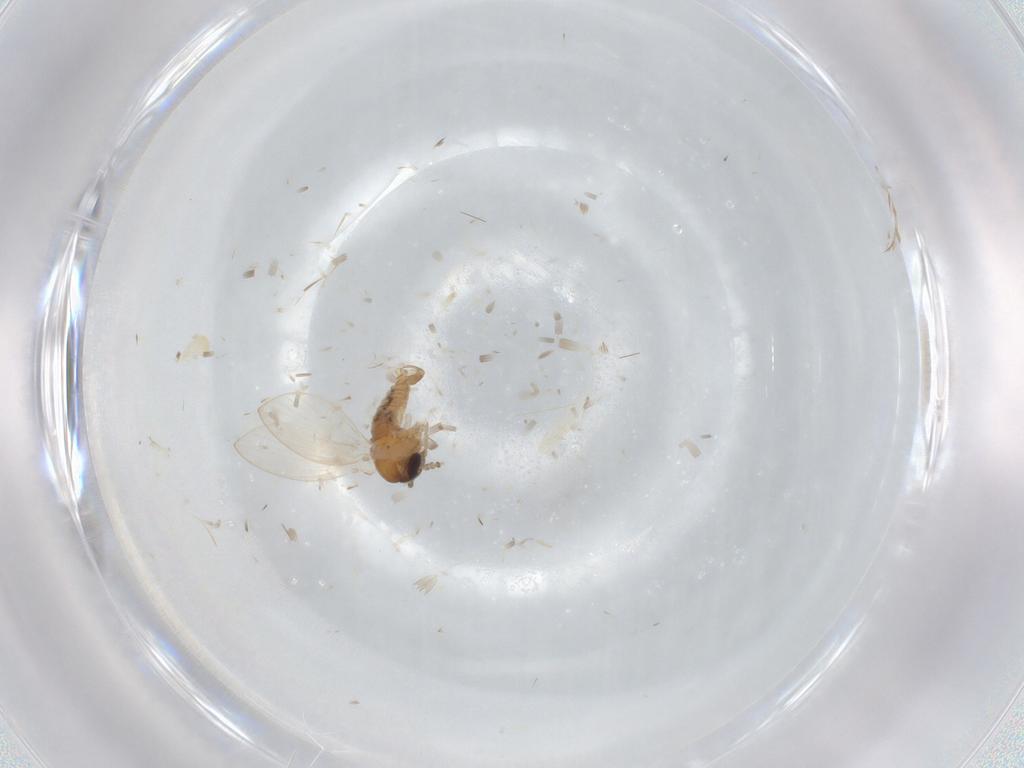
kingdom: Animalia
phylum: Arthropoda
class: Insecta
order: Diptera
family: Psychodidae
